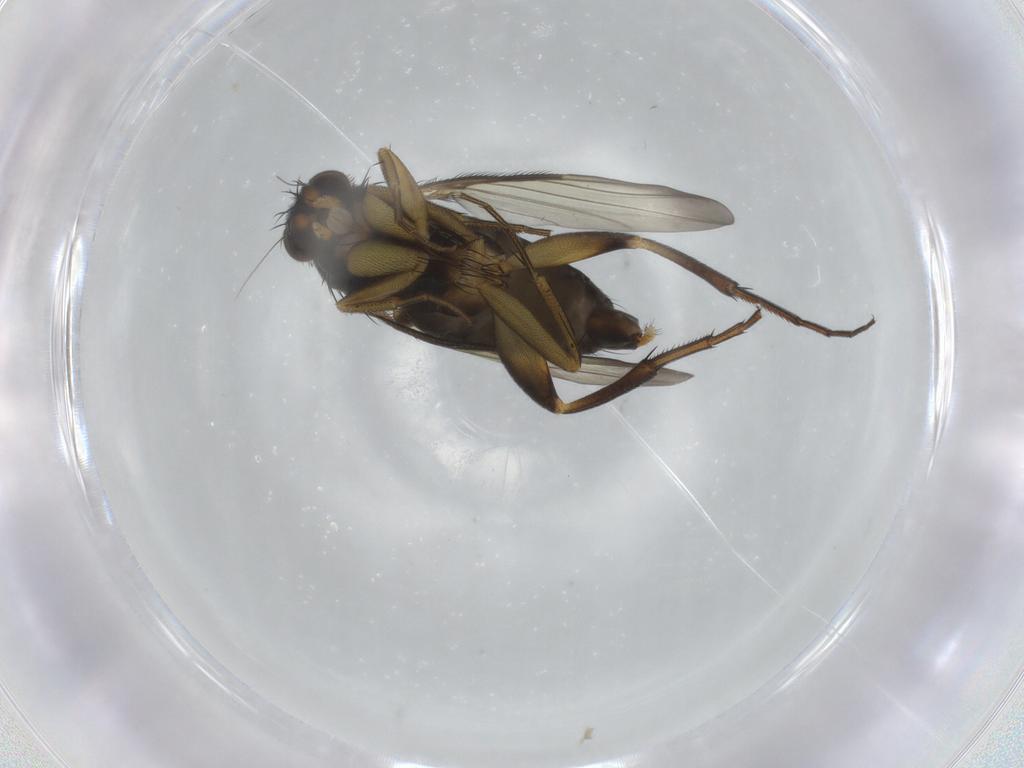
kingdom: Animalia
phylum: Arthropoda
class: Insecta
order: Diptera
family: Phoridae
